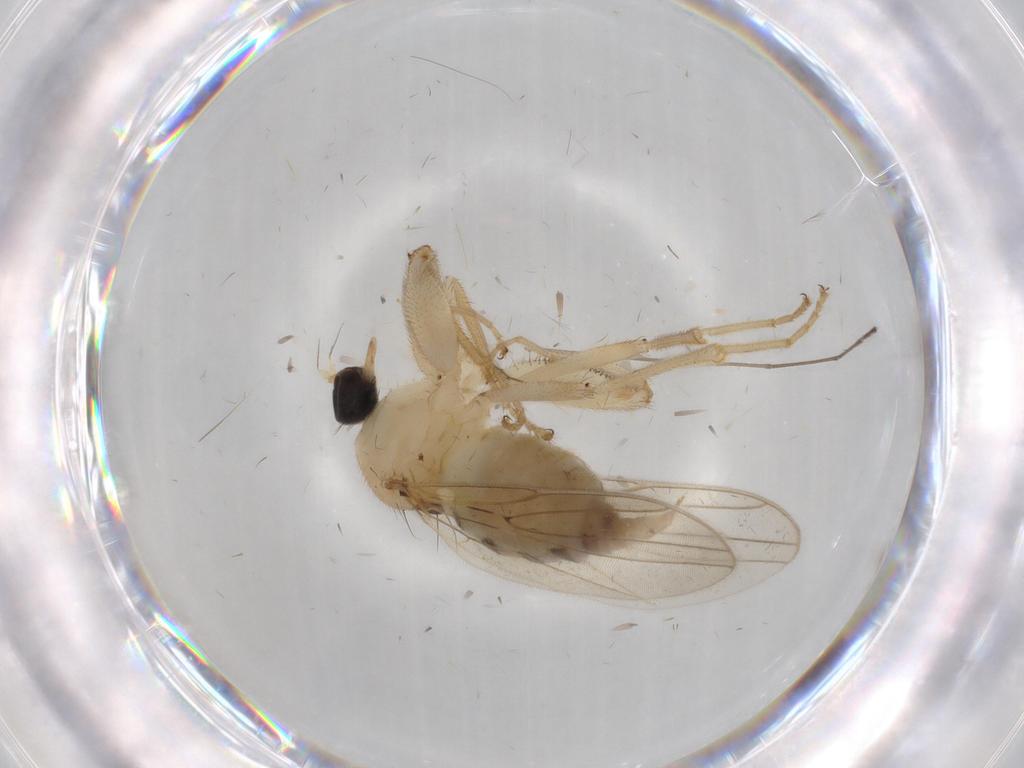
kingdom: Animalia
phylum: Arthropoda
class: Insecta
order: Diptera
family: Hybotidae
